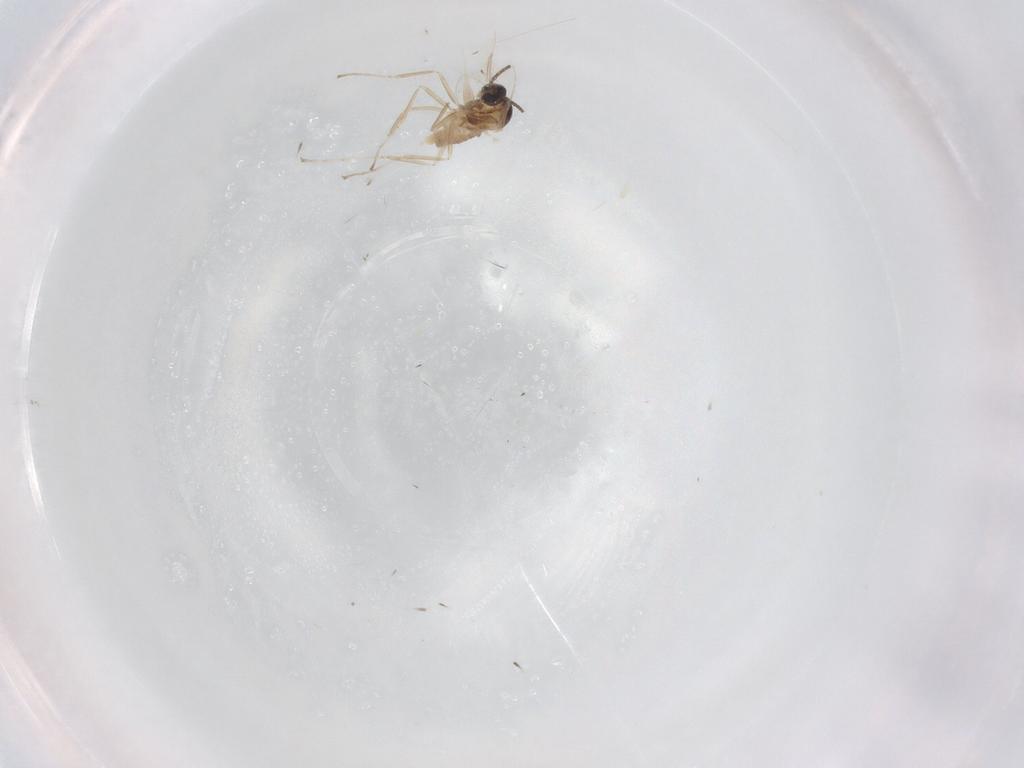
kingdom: Animalia
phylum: Arthropoda
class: Insecta
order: Diptera
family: Cecidomyiidae
